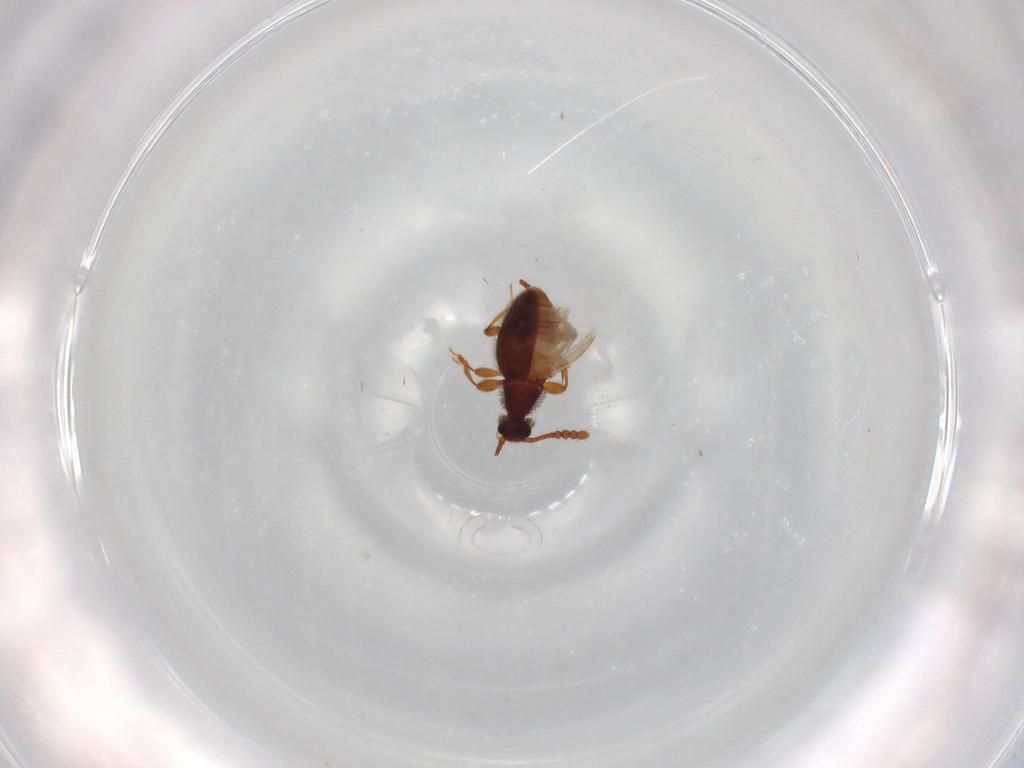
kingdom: Animalia
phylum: Arthropoda
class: Insecta
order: Coleoptera
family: Staphylinidae
